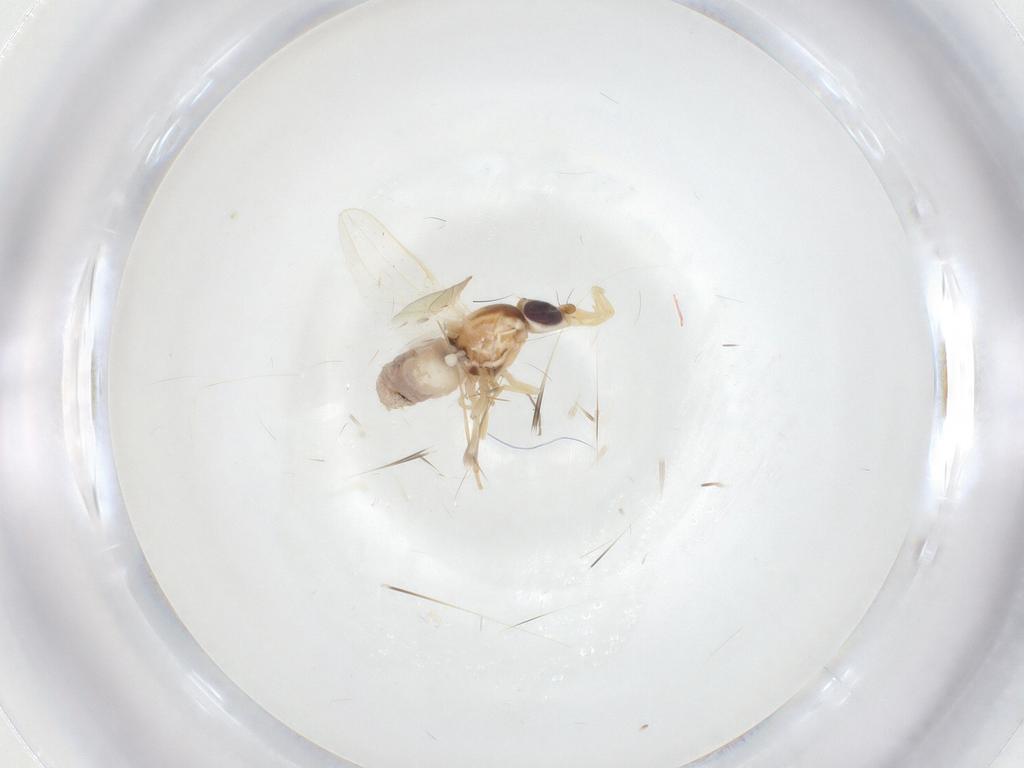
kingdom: Animalia
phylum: Arthropoda
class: Insecta
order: Diptera
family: Chloropidae
